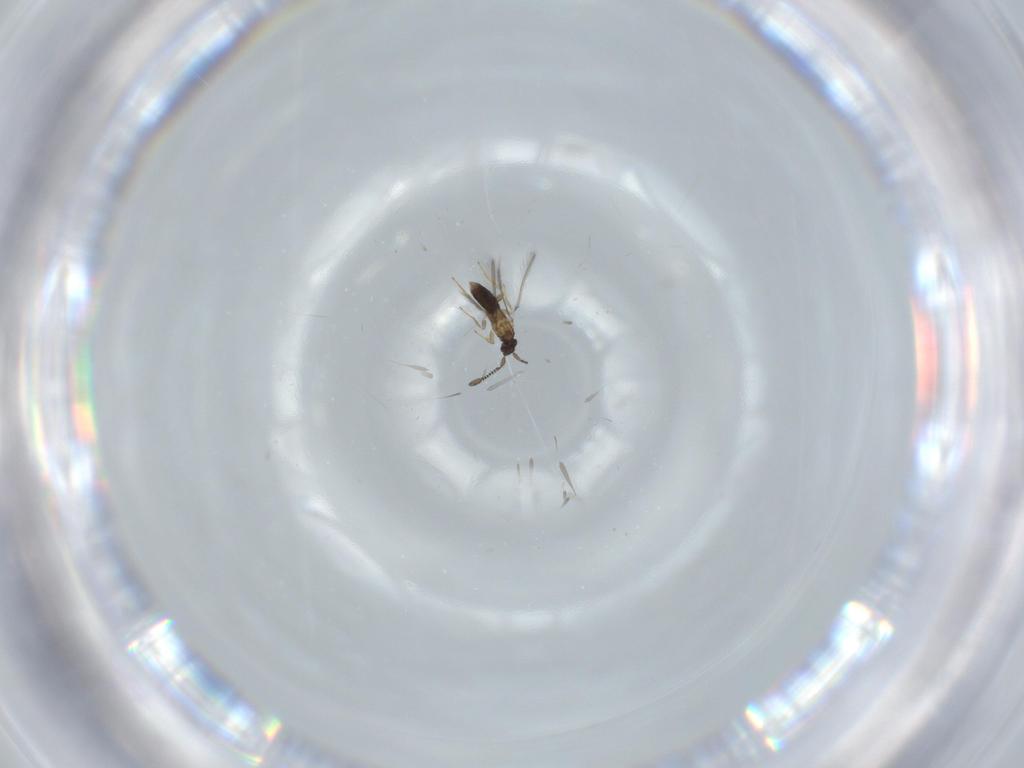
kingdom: Animalia
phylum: Arthropoda
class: Insecta
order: Hymenoptera
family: Mymaridae
